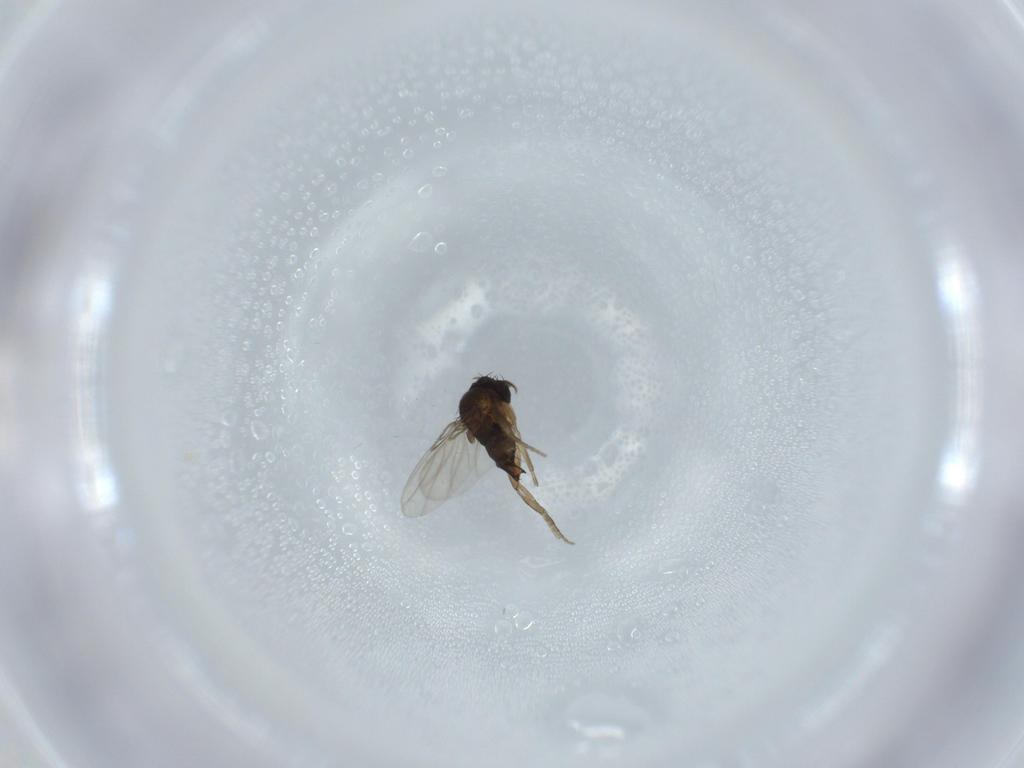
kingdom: Animalia
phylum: Arthropoda
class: Insecta
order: Diptera
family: Phoridae
